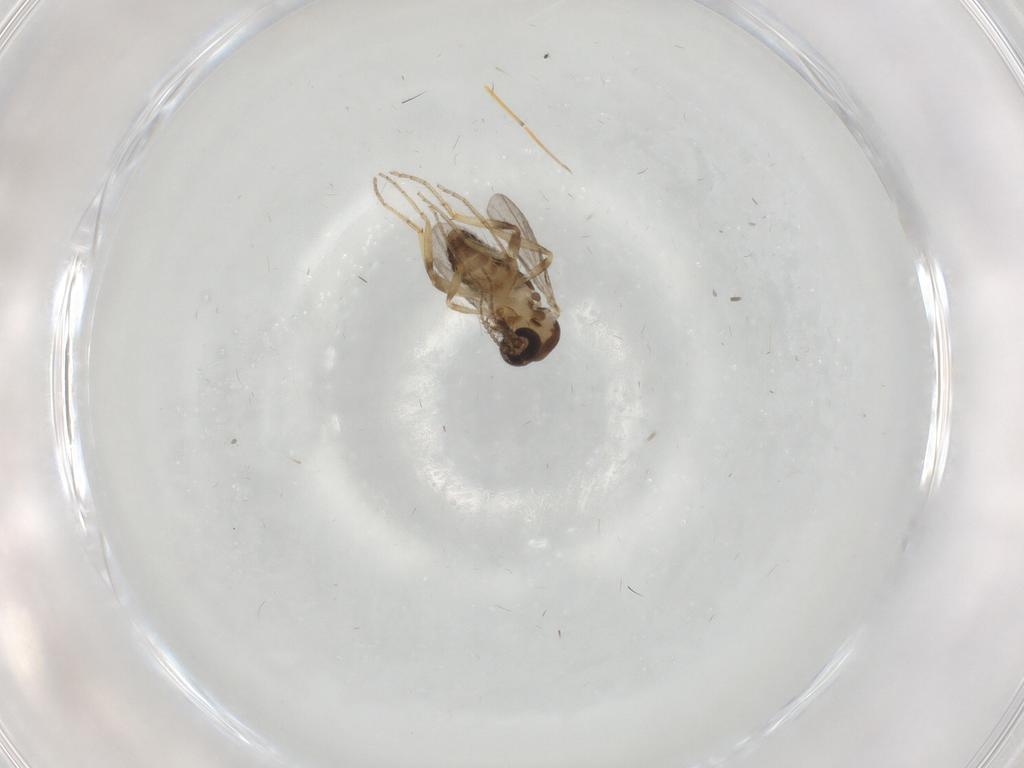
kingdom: Animalia
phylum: Arthropoda
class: Insecta
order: Diptera
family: Ceratopogonidae
